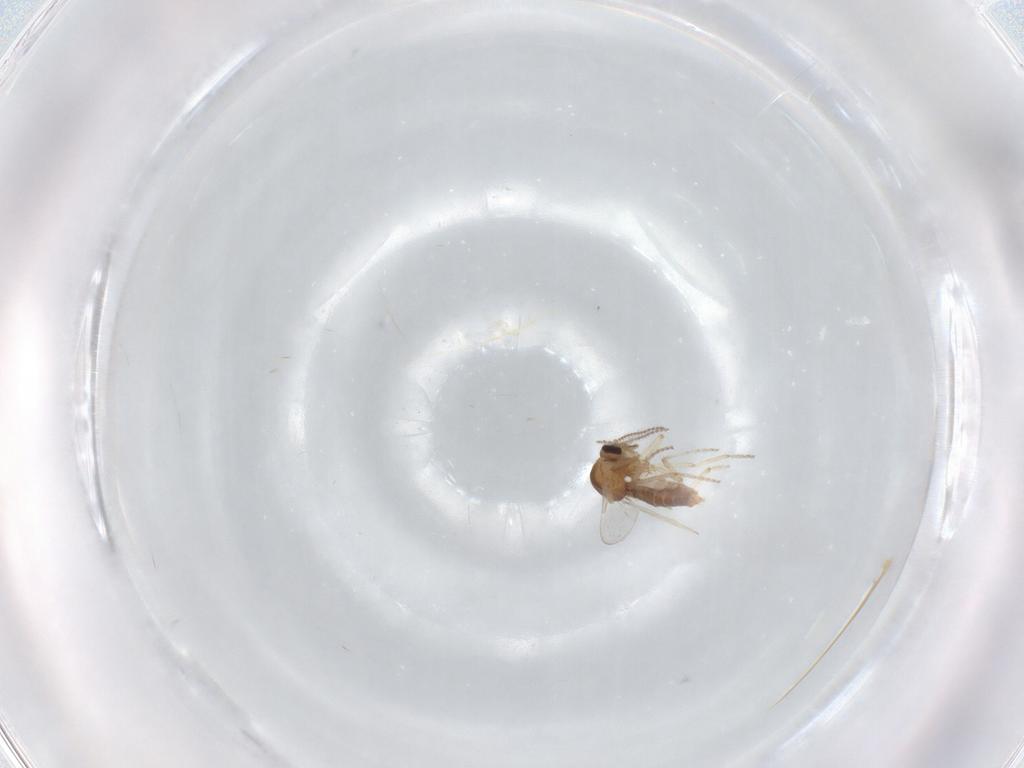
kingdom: Animalia
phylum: Arthropoda
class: Insecta
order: Diptera
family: Ceratopogonidae
